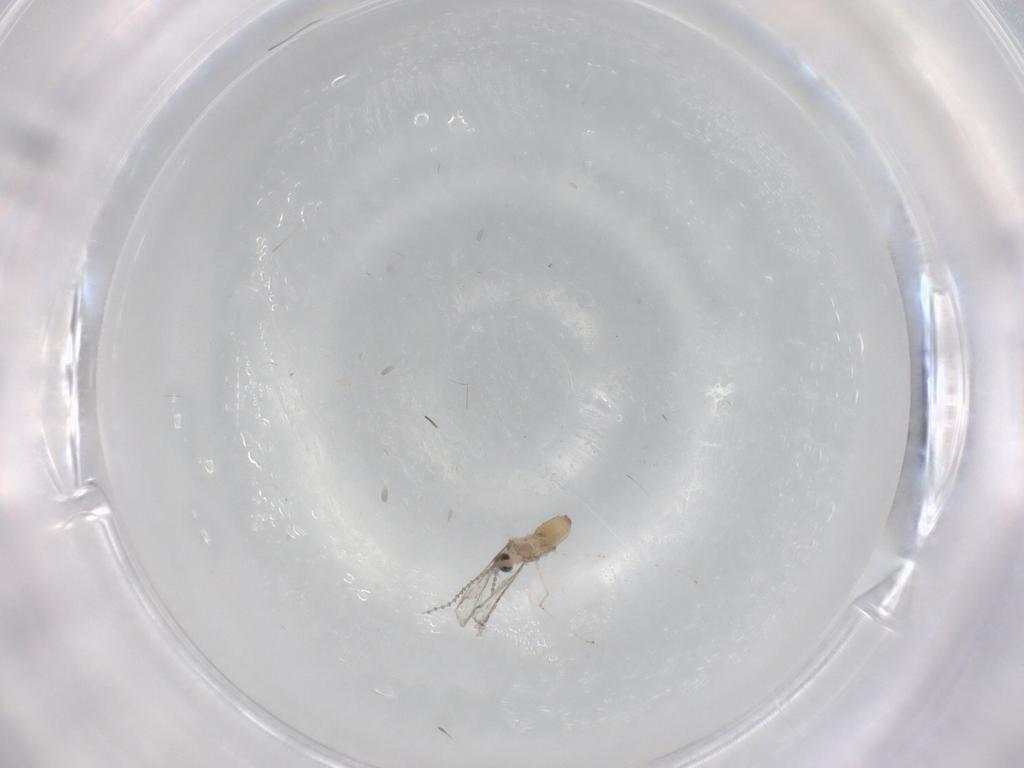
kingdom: Animalia
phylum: Arthropoda
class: Insecta
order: Diptera
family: Cecidomyiidae
